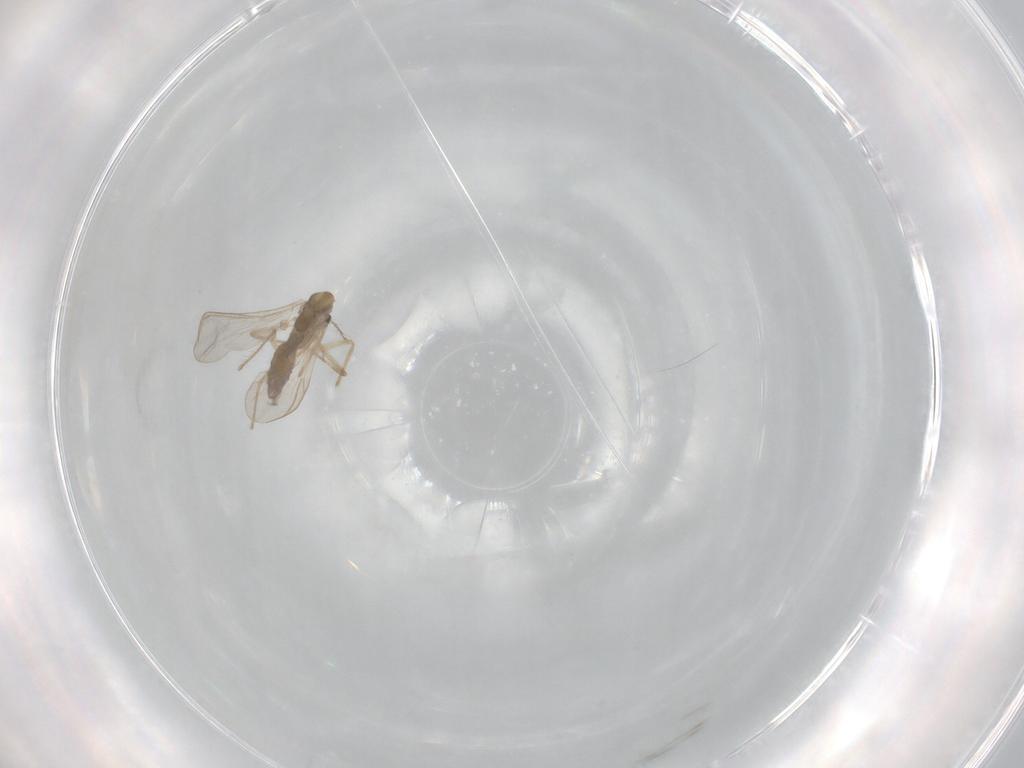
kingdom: Animalia
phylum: Arthropoda
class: Insecta
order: Diptera
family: Chironomidae
